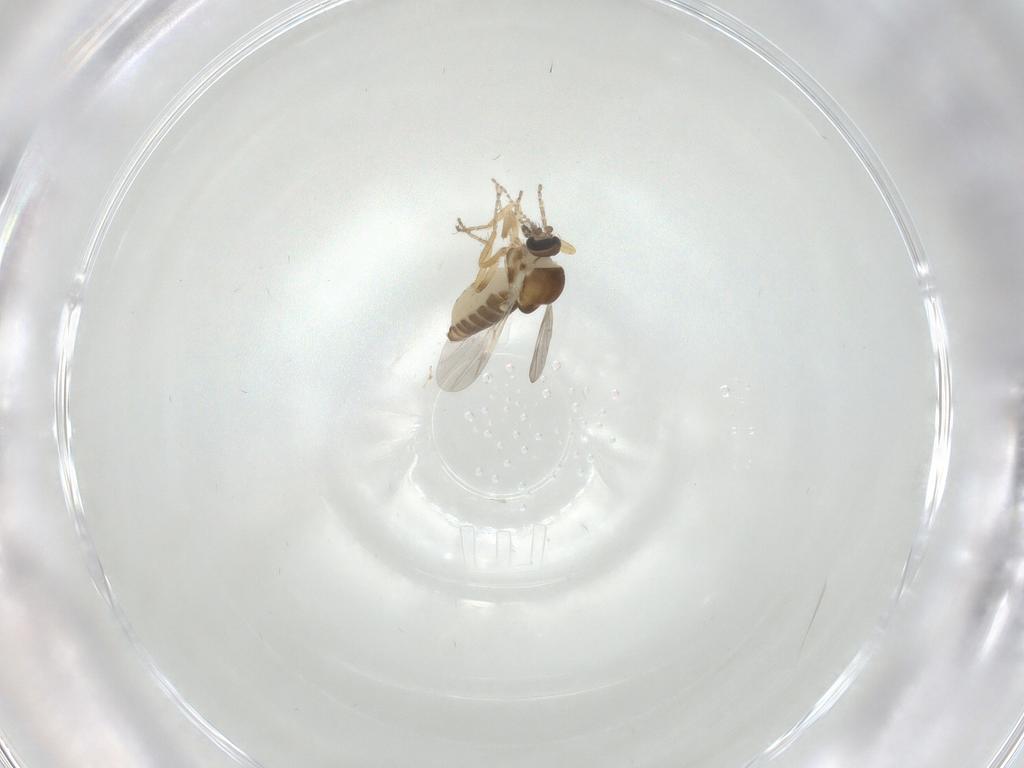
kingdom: Animalia
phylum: Arthropoda
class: Insecta
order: Diptera
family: Ceratopogonidae
